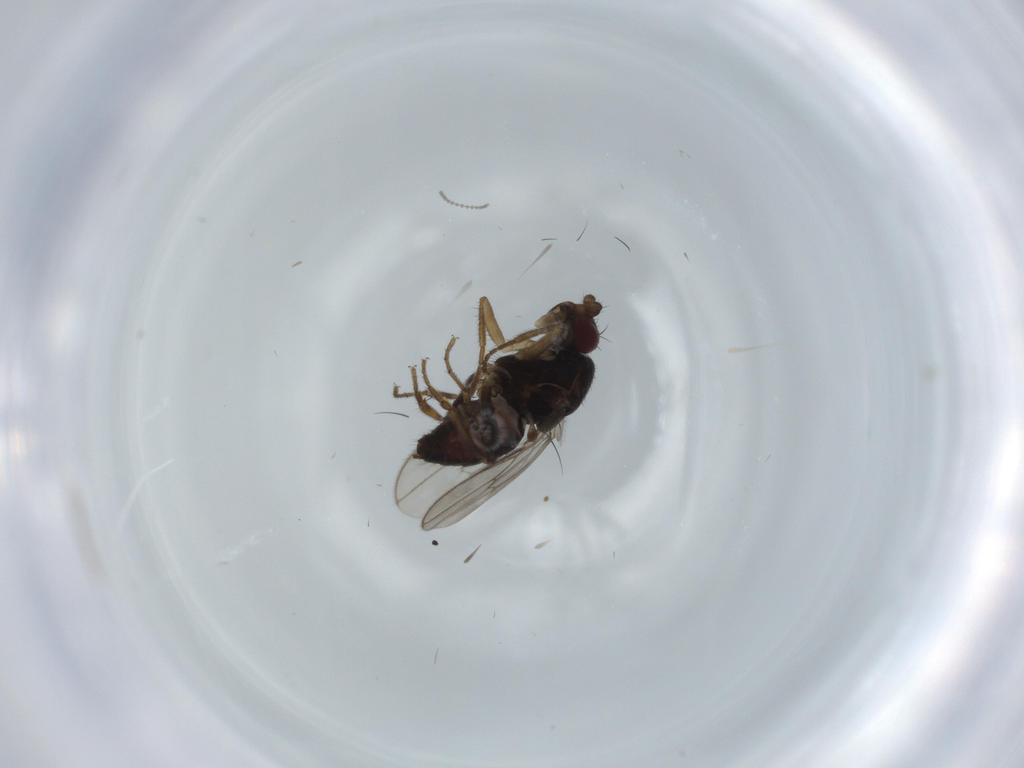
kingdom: Animalia
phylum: Arthropoda
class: Insecta
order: Diptera
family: Sphaeroceridae
